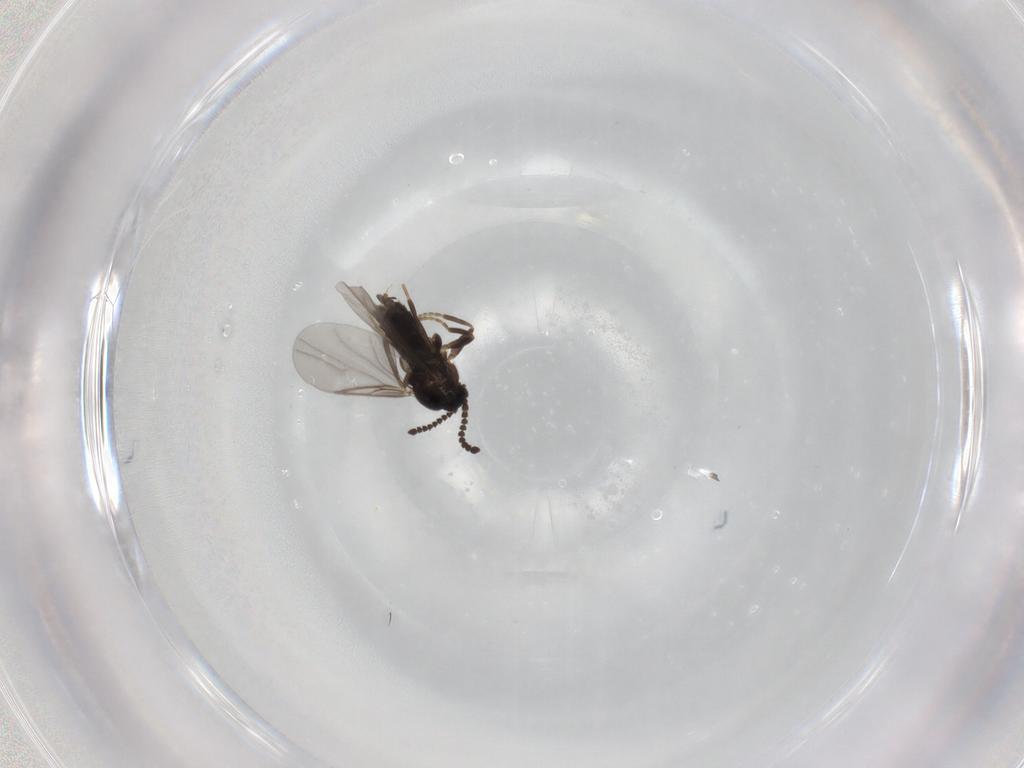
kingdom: Animalia
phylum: Arthropoda
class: Insecta
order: Diptera
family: Scatopsidae
